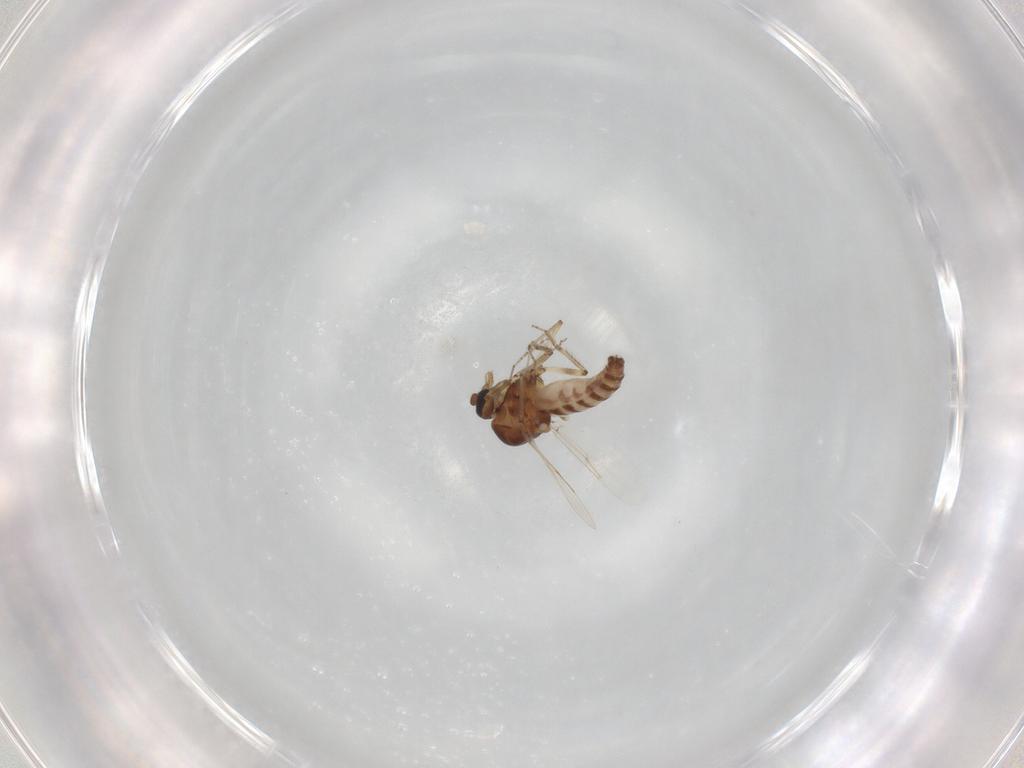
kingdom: Animalia
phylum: Arthropoda
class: Insecta
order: Diptera
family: Ceratopogonidae
